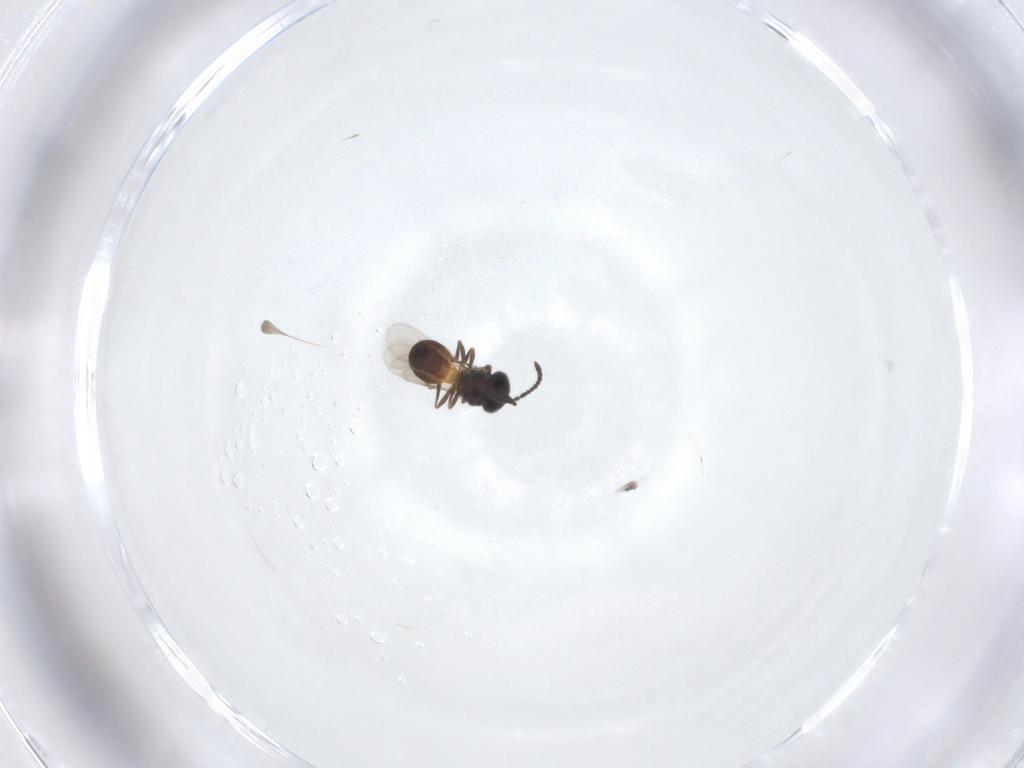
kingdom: Animalia
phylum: Arthropoda
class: Insecta
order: Hymenoptera
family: Scelionidae
